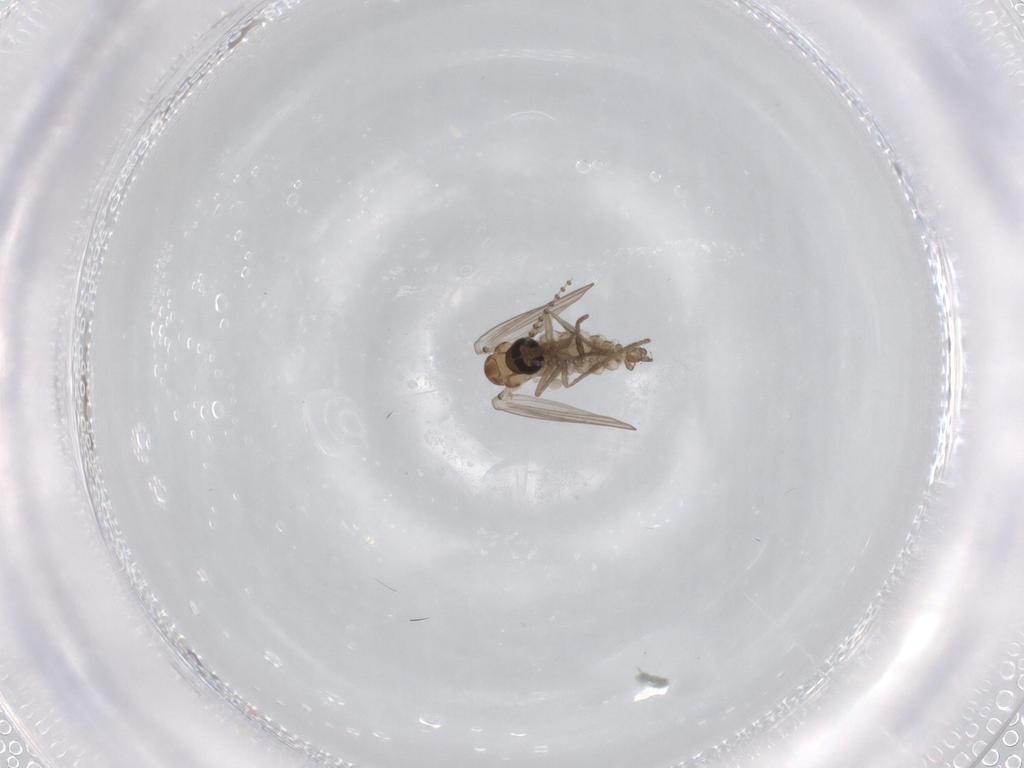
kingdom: Animalia
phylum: Arthropoda
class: Insecta
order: Diptera
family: Psychodidae
